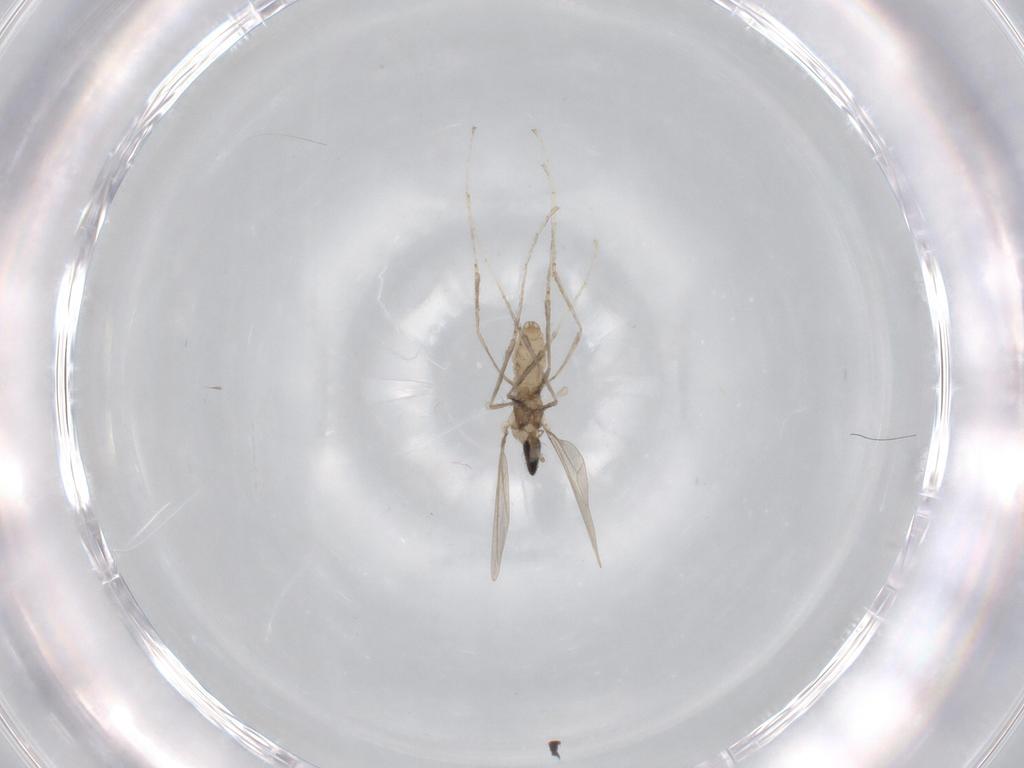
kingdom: Animalia
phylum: Arthropoda
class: Insecta
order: Diptera
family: Cecidomyiidae
